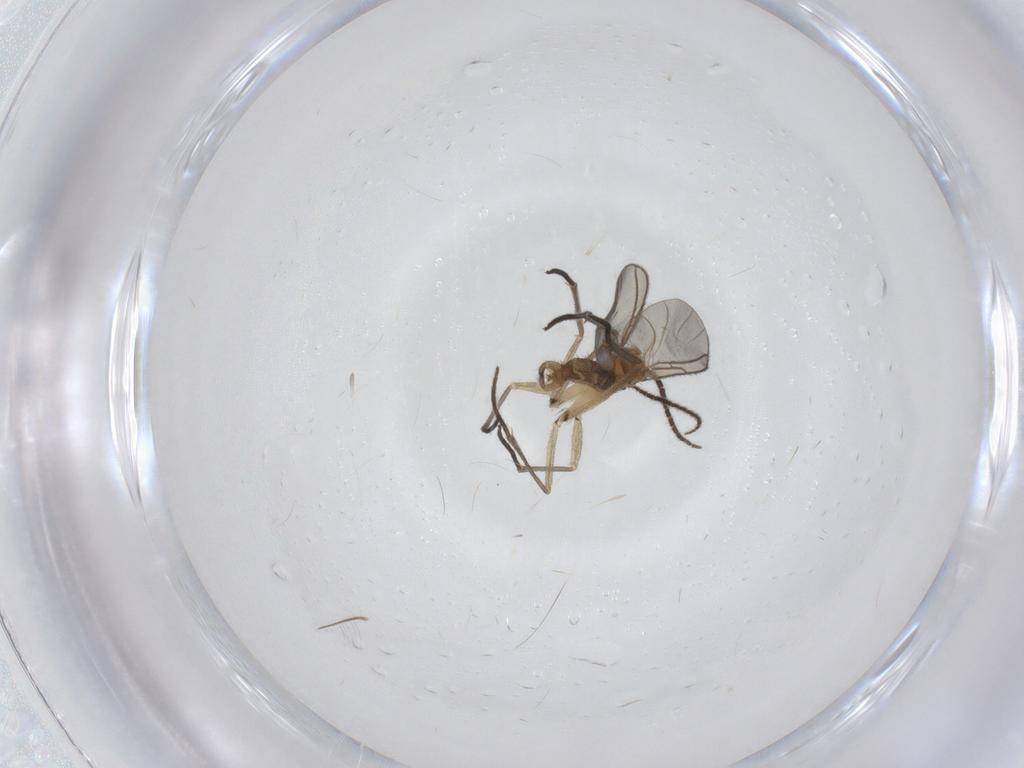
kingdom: Animalia
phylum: Arthropoda
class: Insecta
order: Diptera
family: Sciaridae
